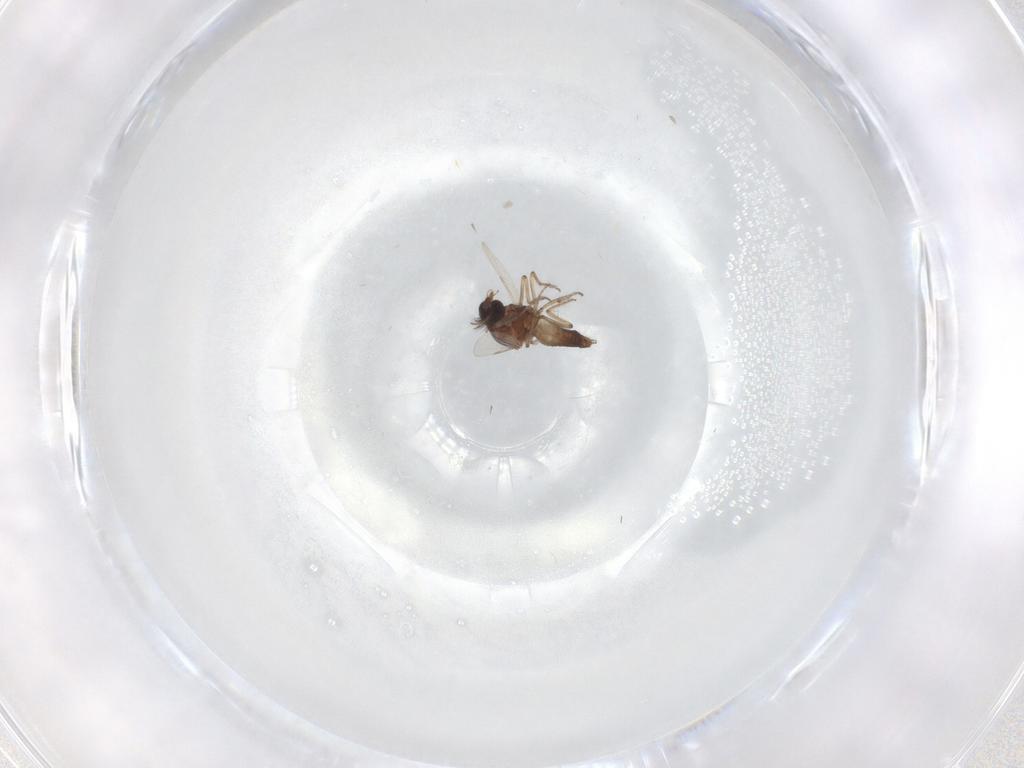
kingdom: Animalia
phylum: Arthropoda
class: Insecta
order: Diptera
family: Ceratopogonidae
